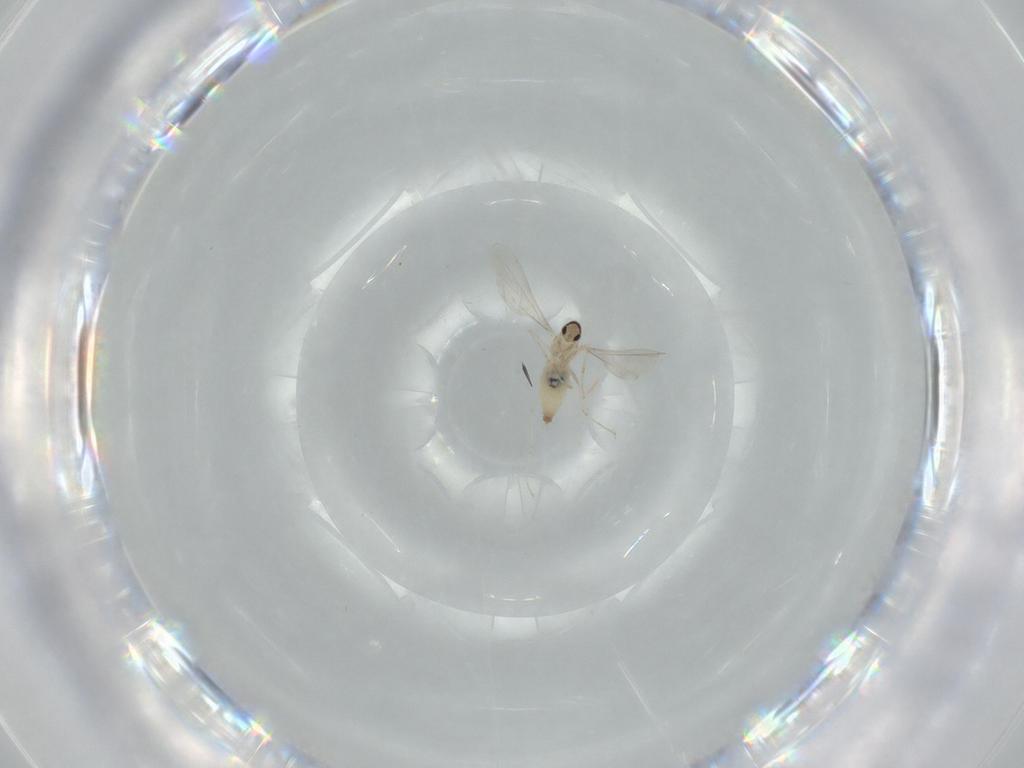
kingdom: Animalia
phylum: Arthropoda
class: Insecta
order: Diptera
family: Cecidomyiidae
